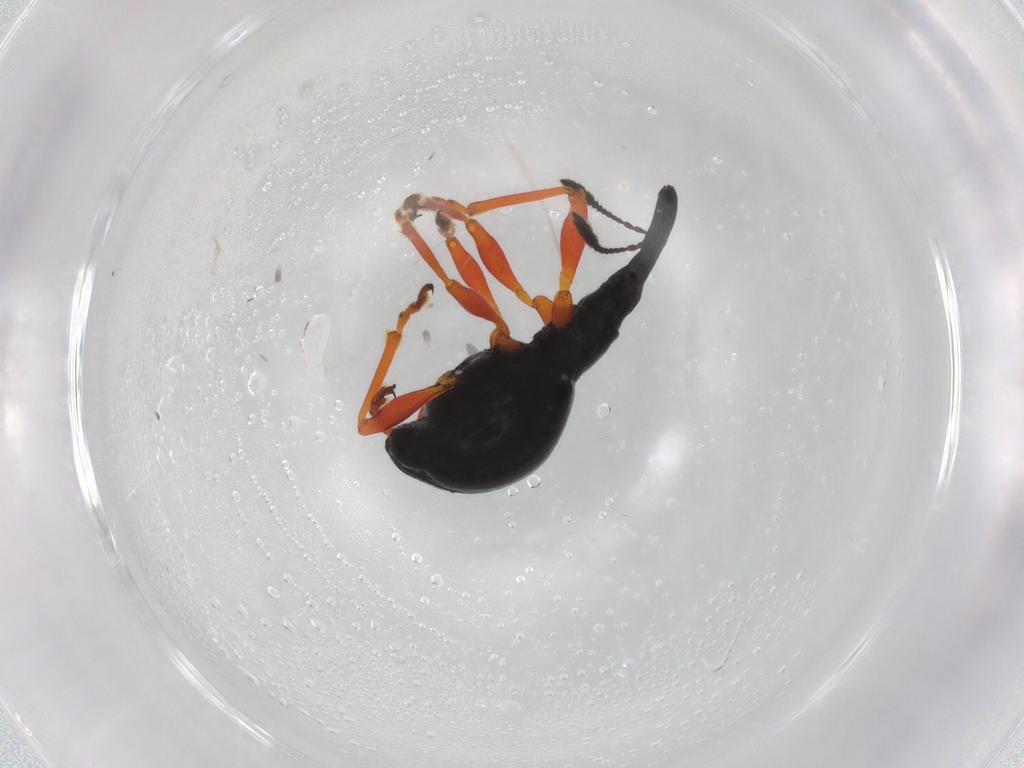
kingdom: Animalia
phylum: Arthropoda
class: Insecta
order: Coleoptera
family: Brentidae
